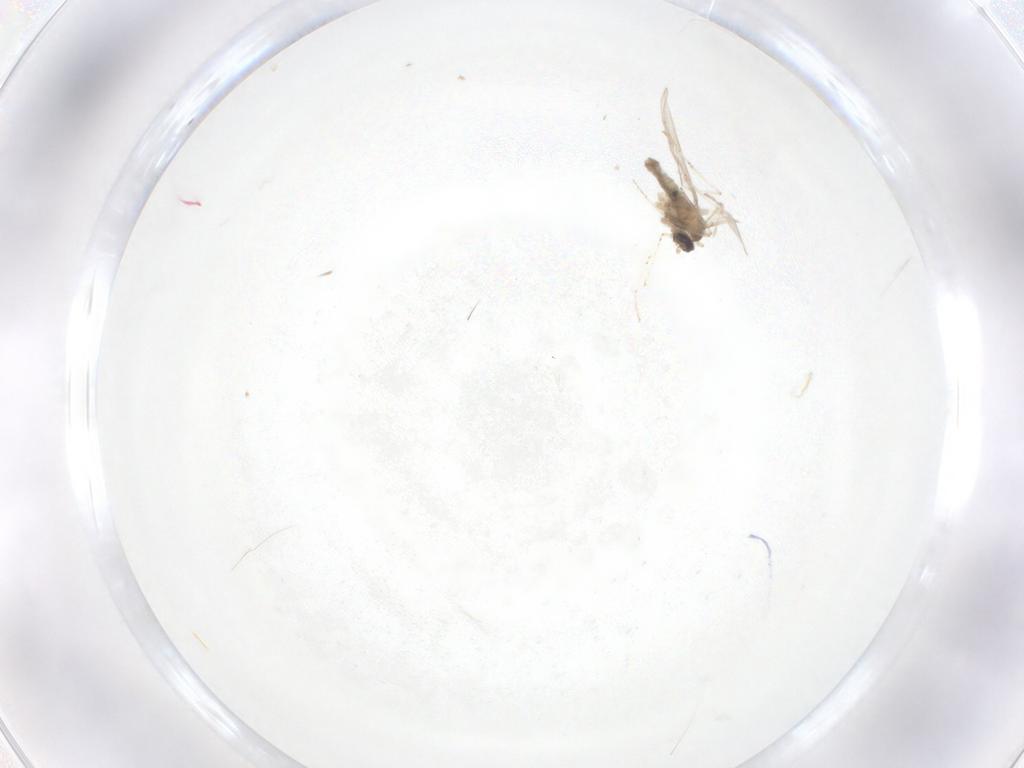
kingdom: Animalia
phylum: Arthropoda
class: Insecta
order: Diptera
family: Cecidomyiidae
